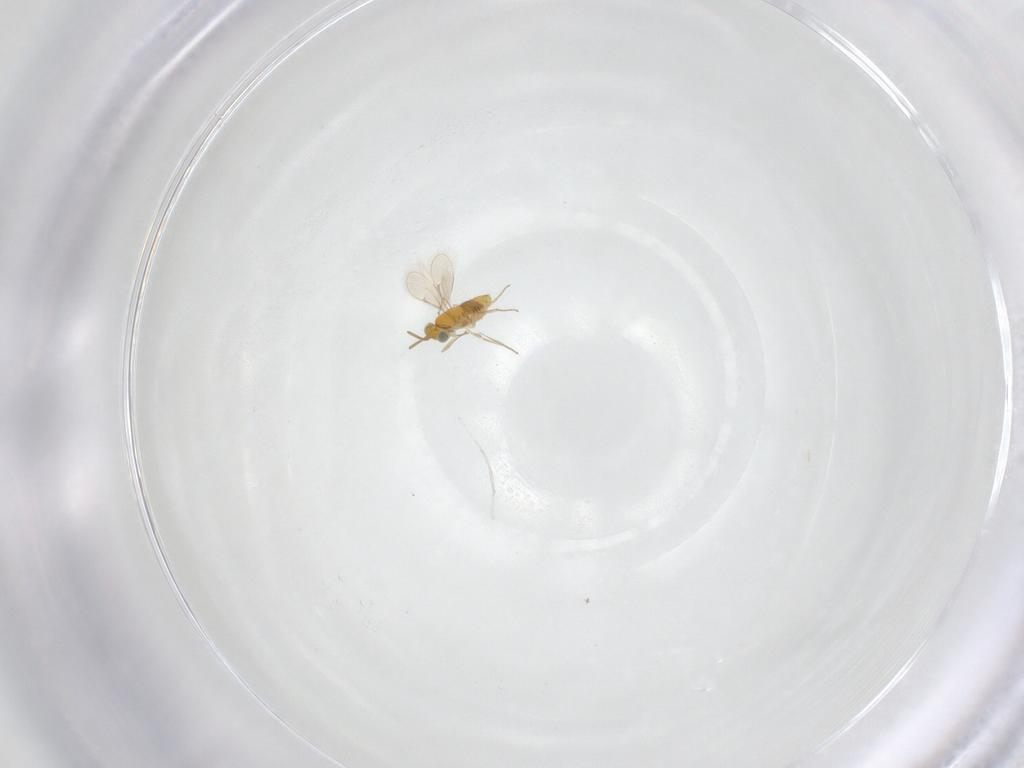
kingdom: Animalia
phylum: Arthropoda
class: Insecta
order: Hymenoptera
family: Aphelinidae
